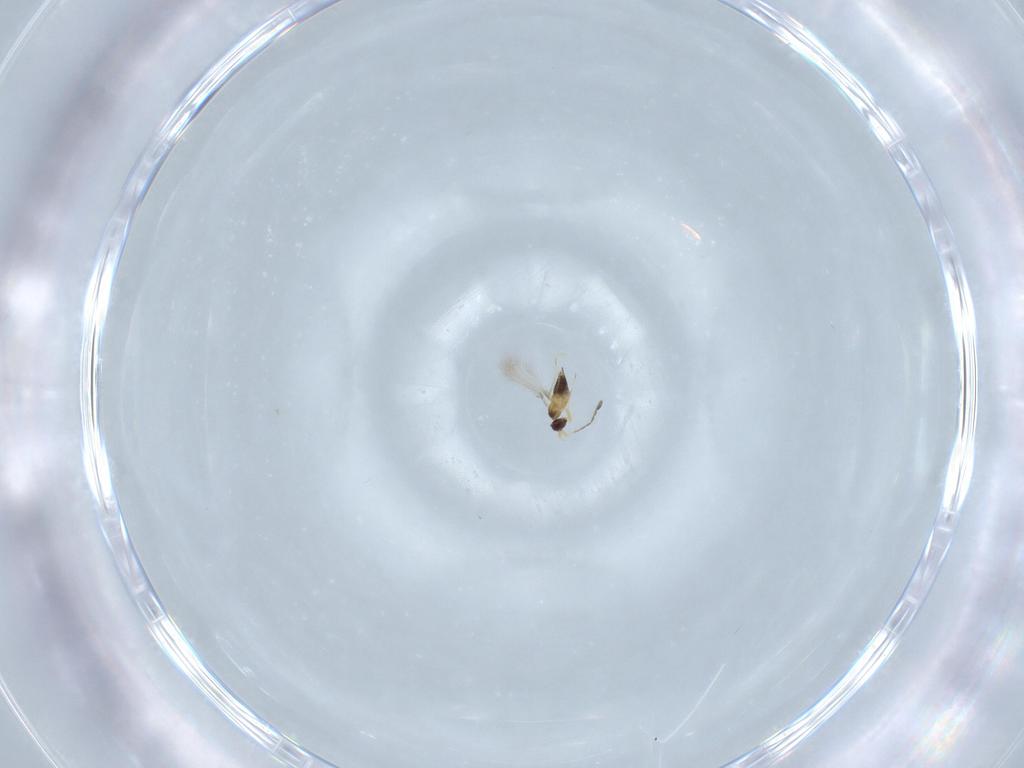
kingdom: Animalia
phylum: Arthropoda
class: Insecta
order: Hymenoptera
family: Mymaridae
